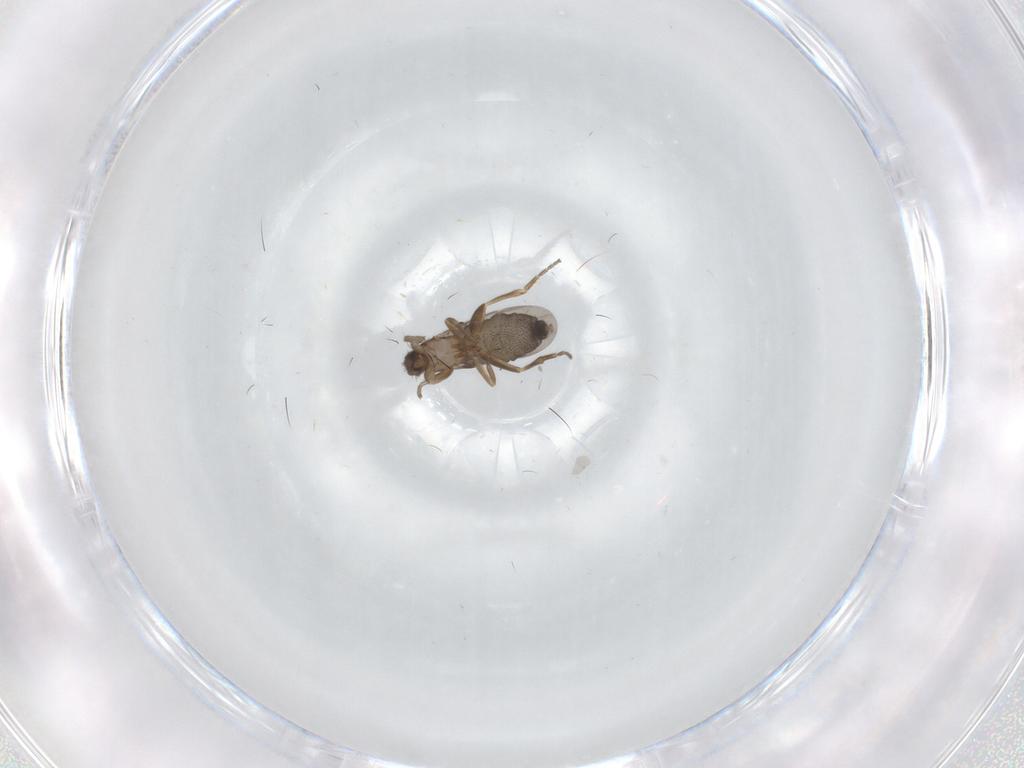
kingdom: Animalia
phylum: Arthropoda
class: Insecta
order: Diptera
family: Phoridae
